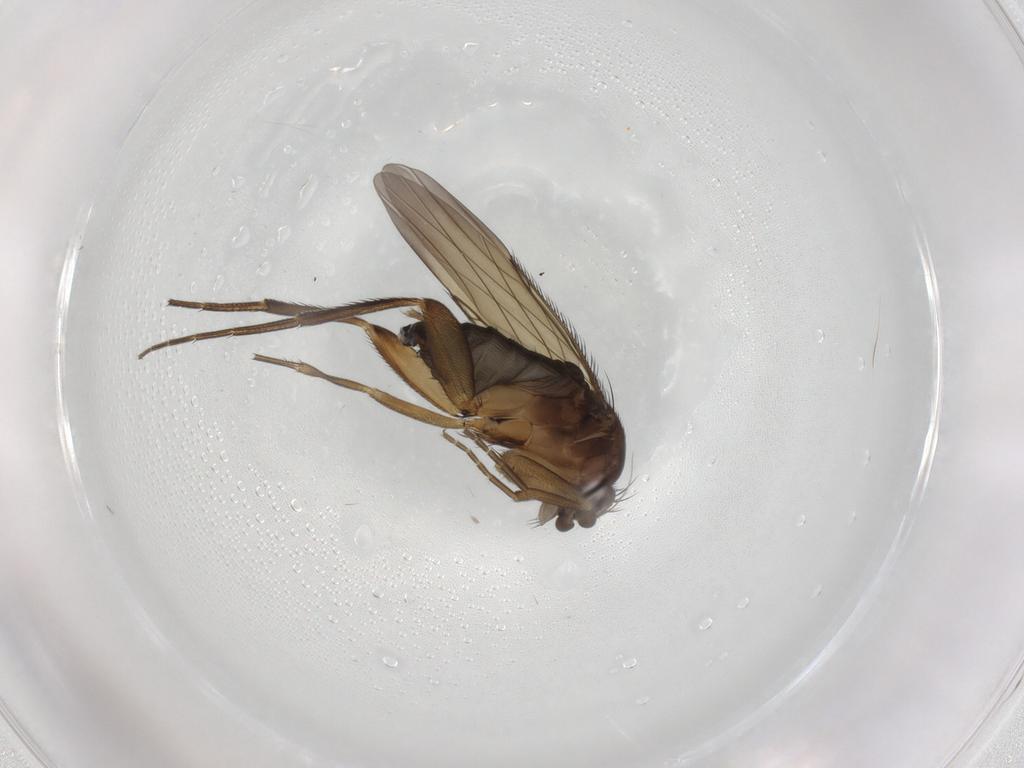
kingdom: Animalia
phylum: Arthropoda
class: Insecta
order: Diptera
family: Phoridae
